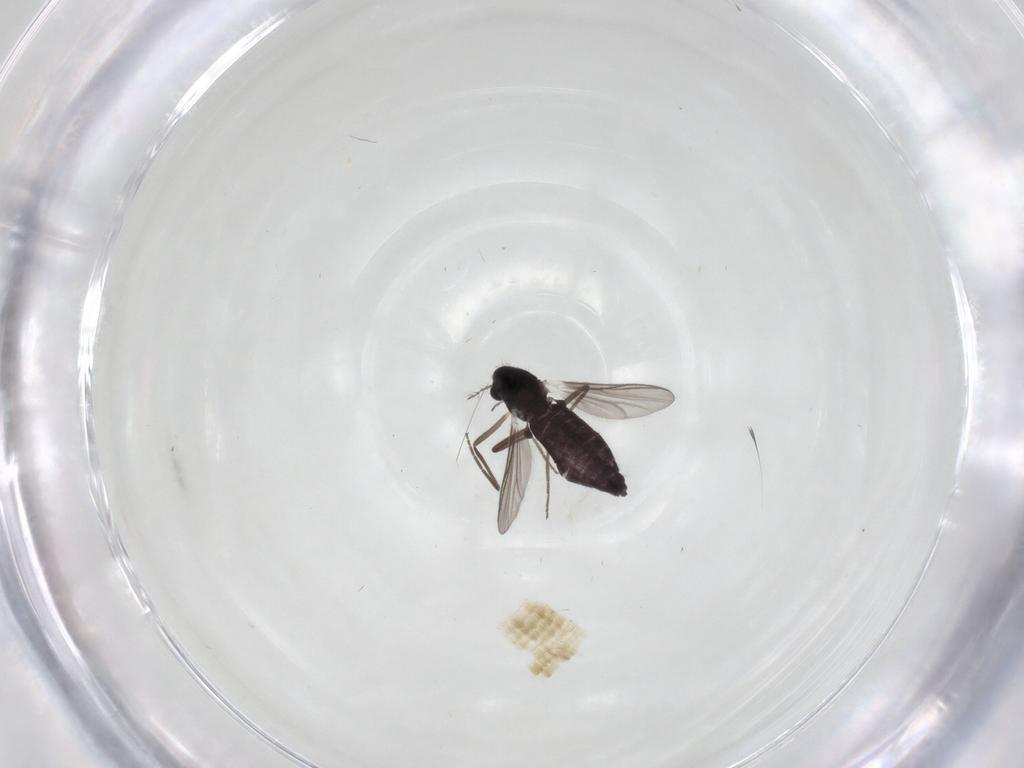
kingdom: Animalia
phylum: Arthropoda
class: Insecta
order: Diptera
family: Chironomidae
